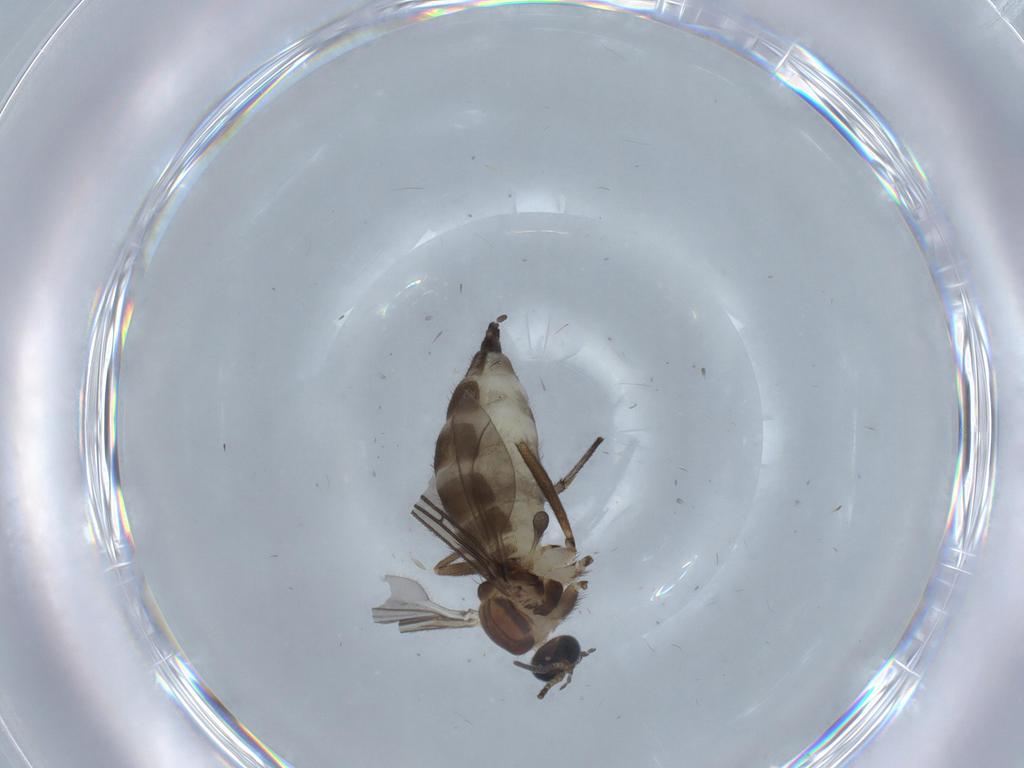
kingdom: Animalia
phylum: Arthropoda
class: Insecta
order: Diptera
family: Sciaridae
